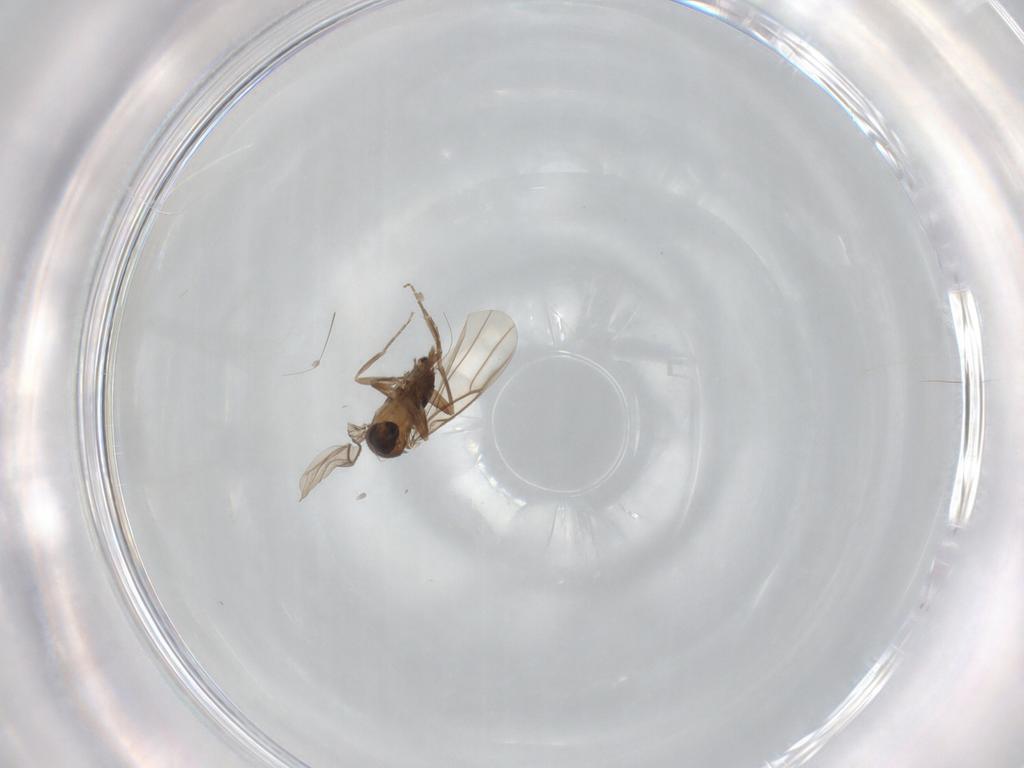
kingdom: Animalia
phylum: Arthropoda
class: Insecta
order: Diptera
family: Phoridae
